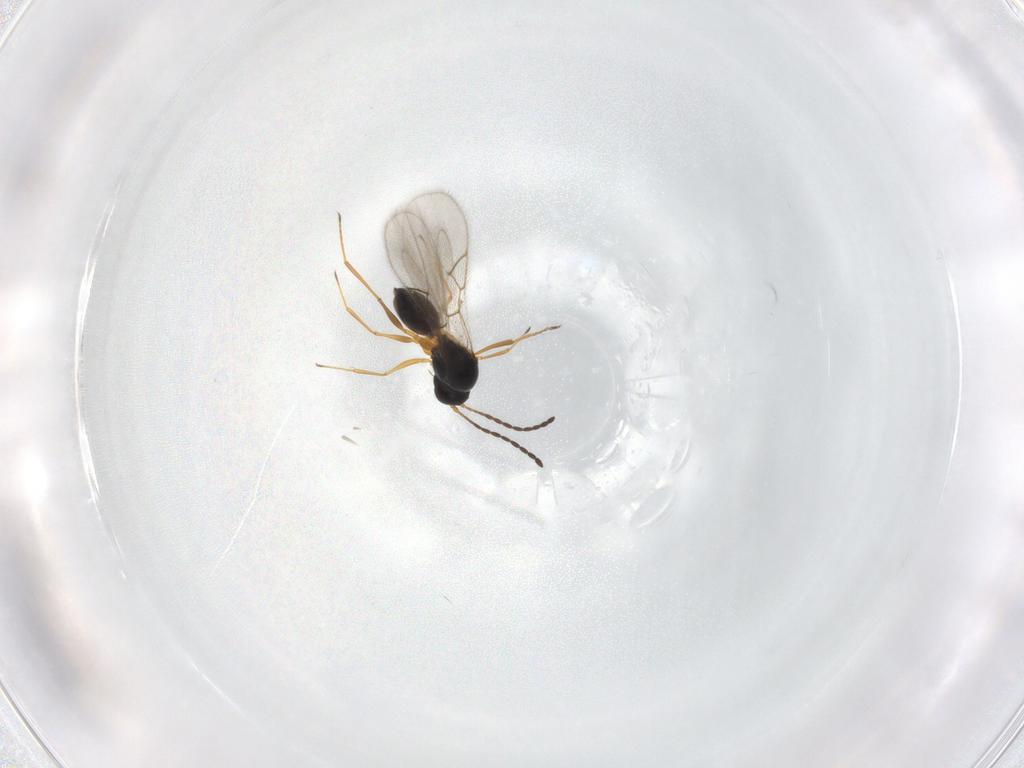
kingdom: Animalia
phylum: Arthropoda
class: Insecta
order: Hymenoptera
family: Figitidae
